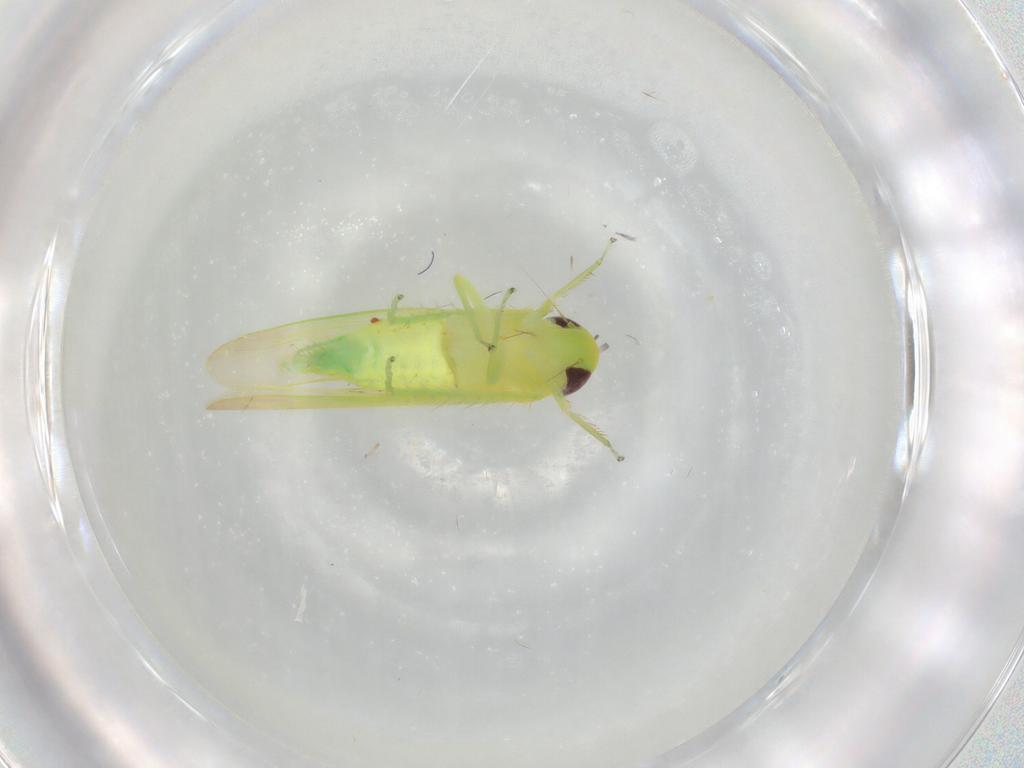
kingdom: Animalia
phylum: Arthropoda
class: Insecta
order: Hemiptera
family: Cicadellidae
